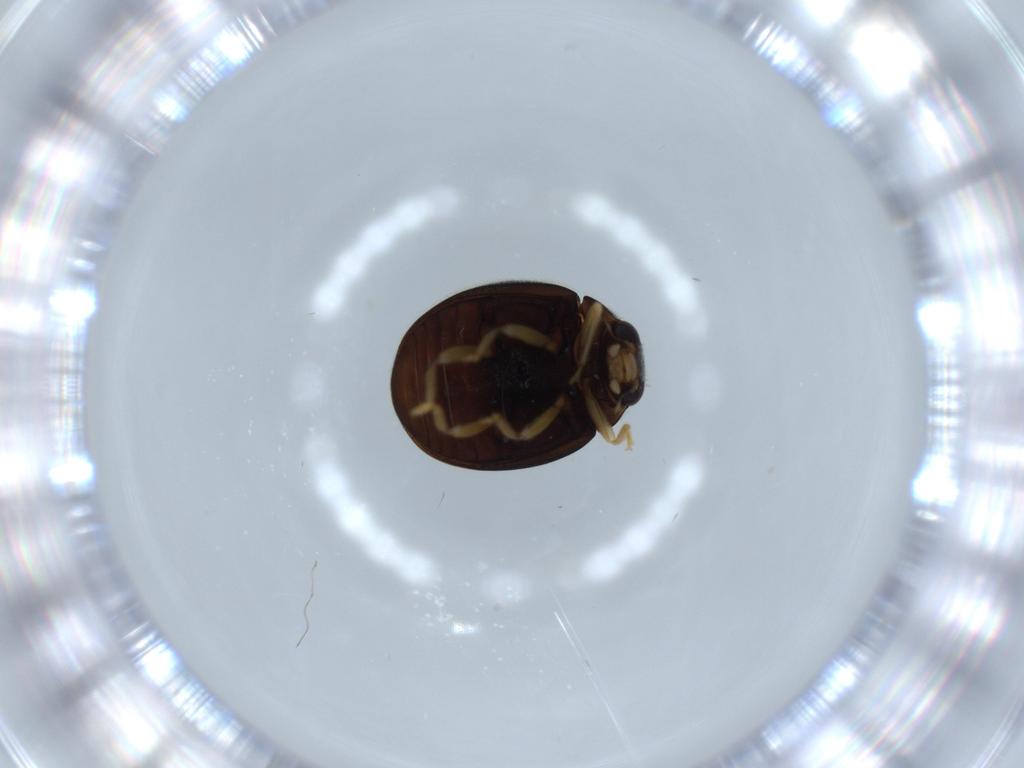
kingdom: Animalia
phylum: Arthropoda
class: Insecta
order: Coleoptera
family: Coccinellidae
